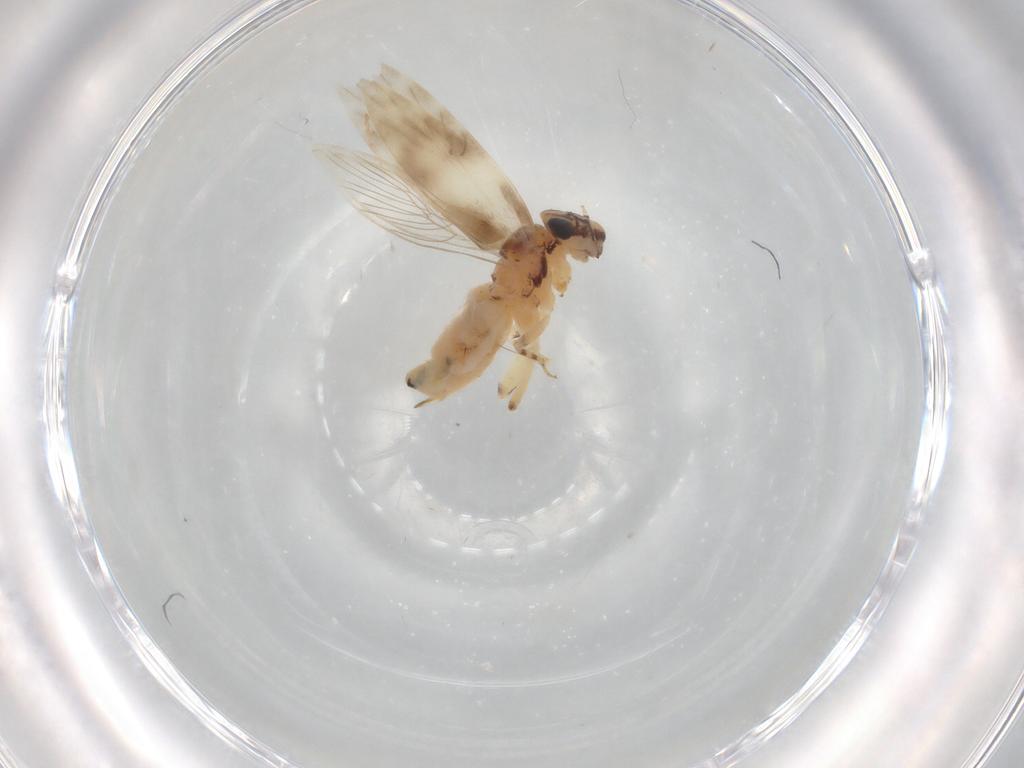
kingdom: Animalia
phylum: Arthropoda
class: Insecta
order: Psocodea
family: Lepidopsocidae
